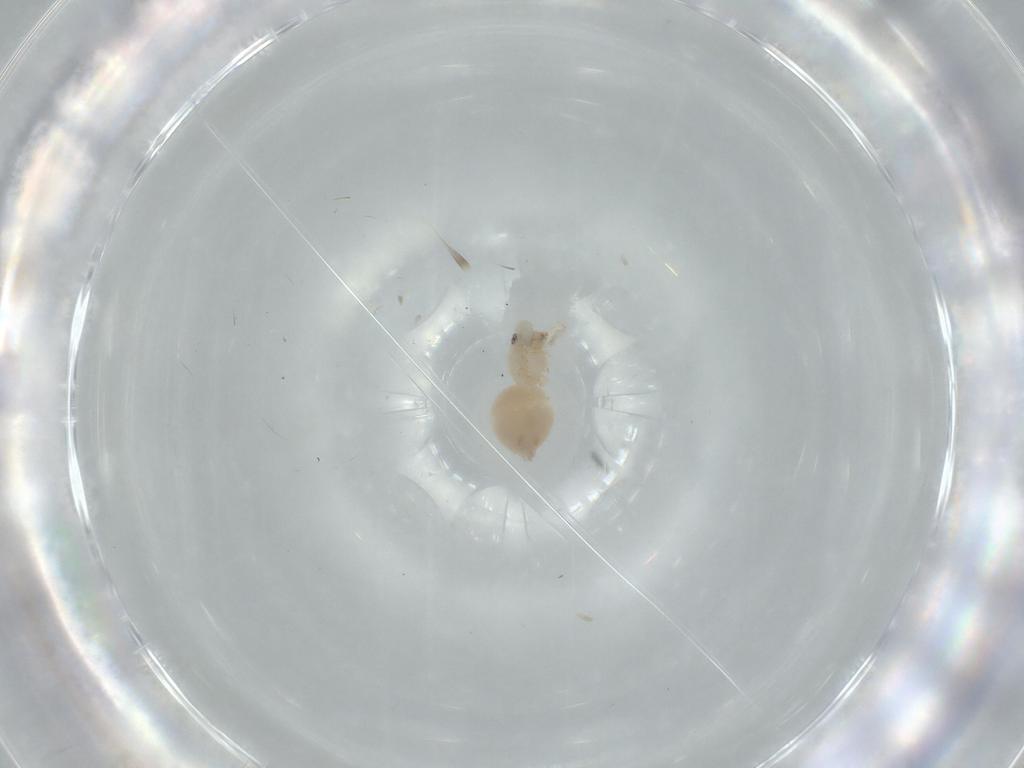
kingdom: Animalia
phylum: Arthropoda
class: Arachnida
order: Araneae
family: Oonopidae
